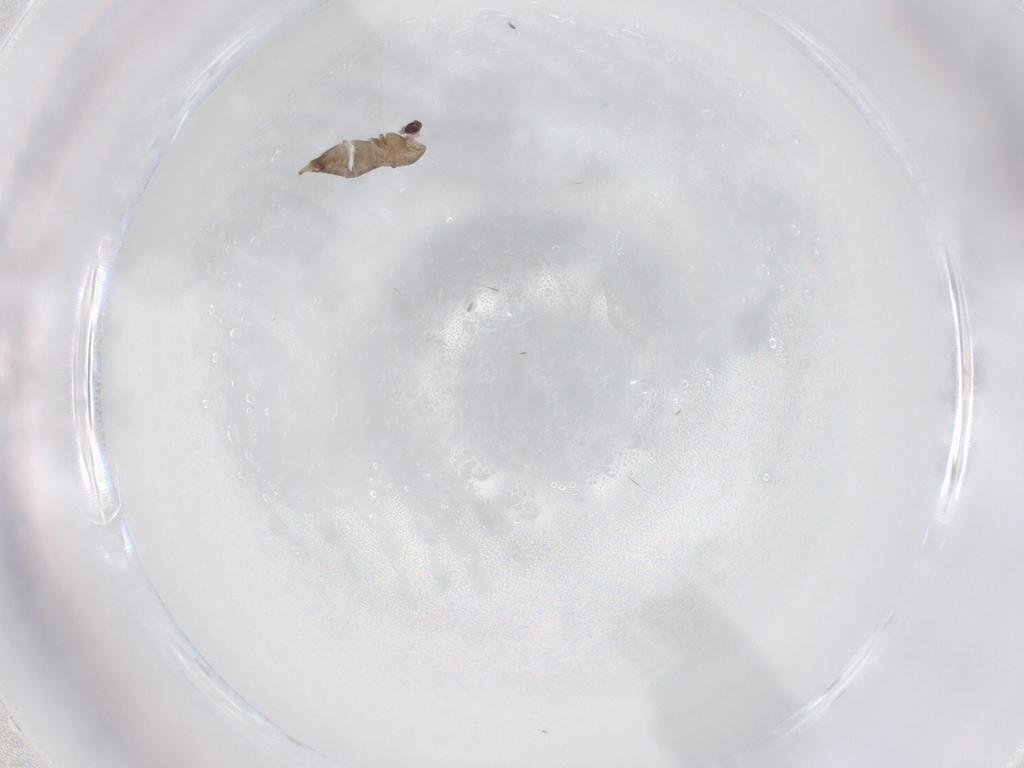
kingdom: Animalia
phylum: Arthropoda
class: Insecta
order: Diptera
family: Chironomidae
